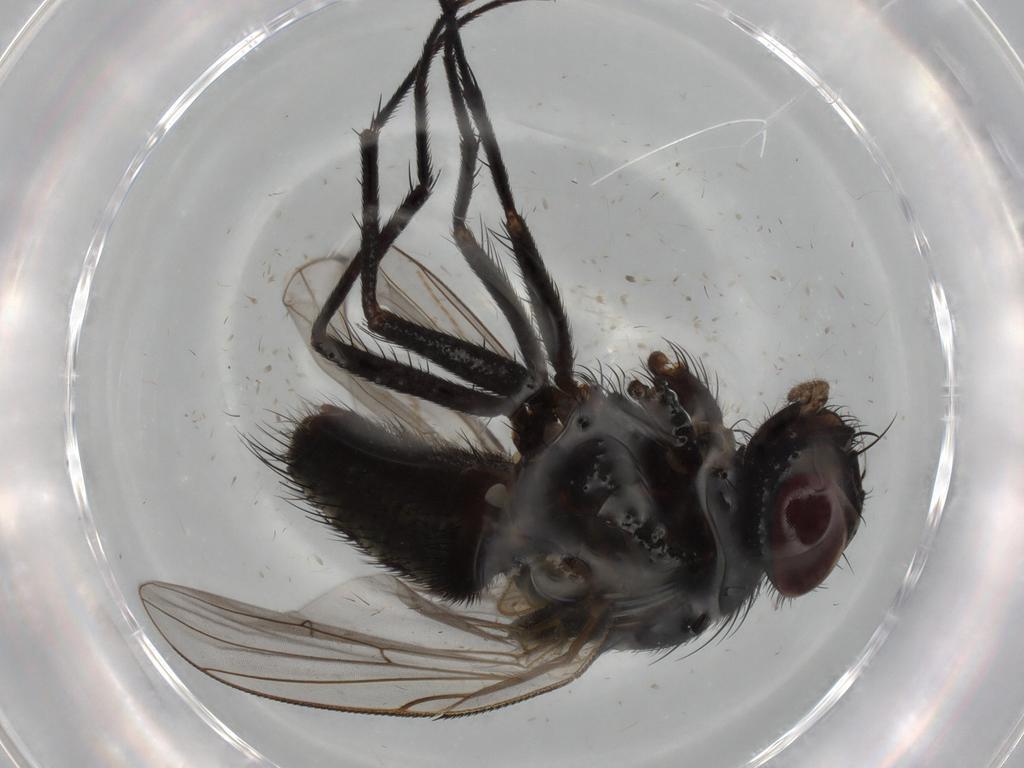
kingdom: Animalia
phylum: Arthropoda
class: Insecta
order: Diptera
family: Muscidae
